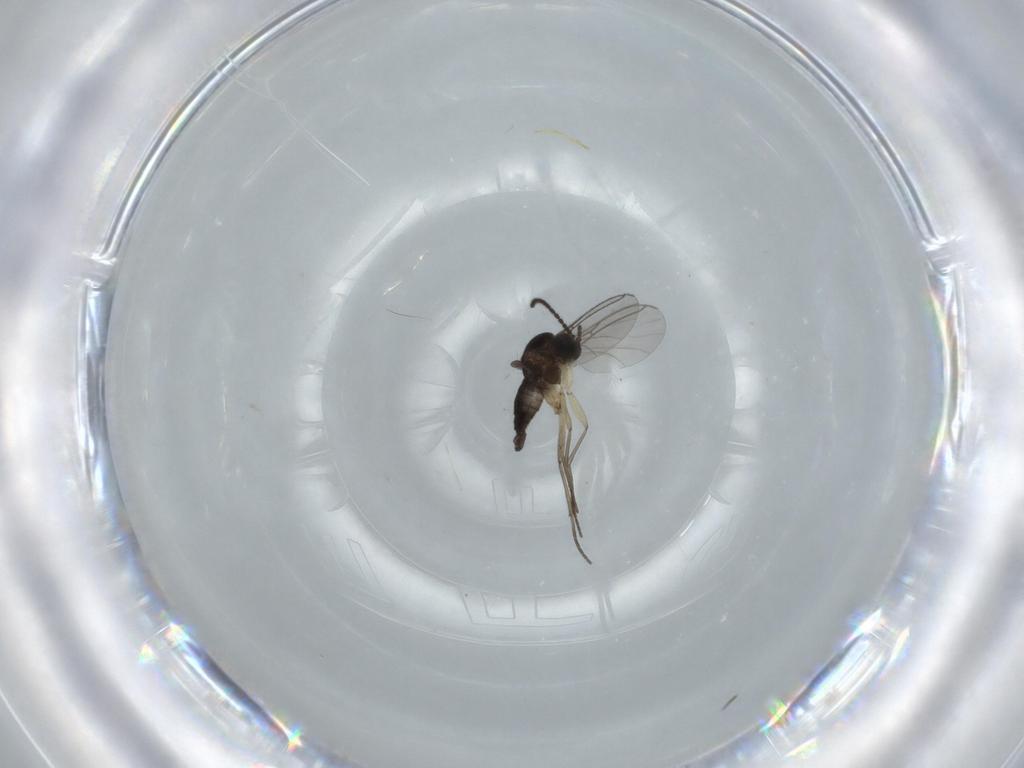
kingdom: Animalia
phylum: Arthropoda
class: Insecta
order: Diptera
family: Sciaridae
